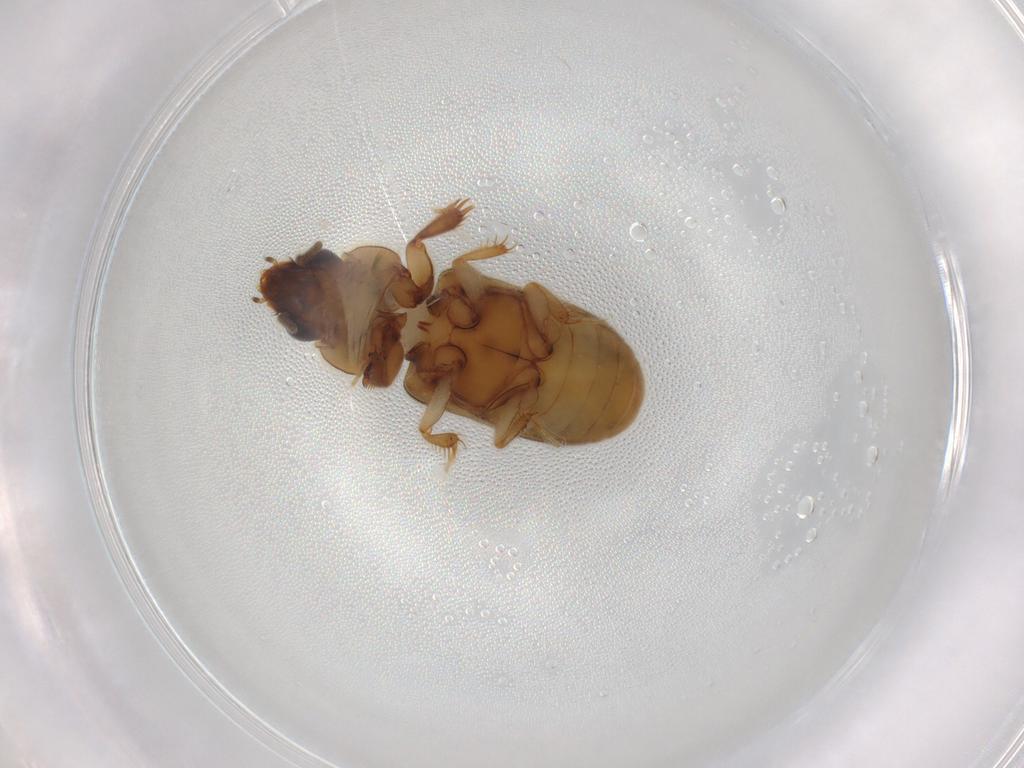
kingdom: Animalia
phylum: Arthropoda
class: Insecta
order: Coleoptera
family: Heteroceridae
